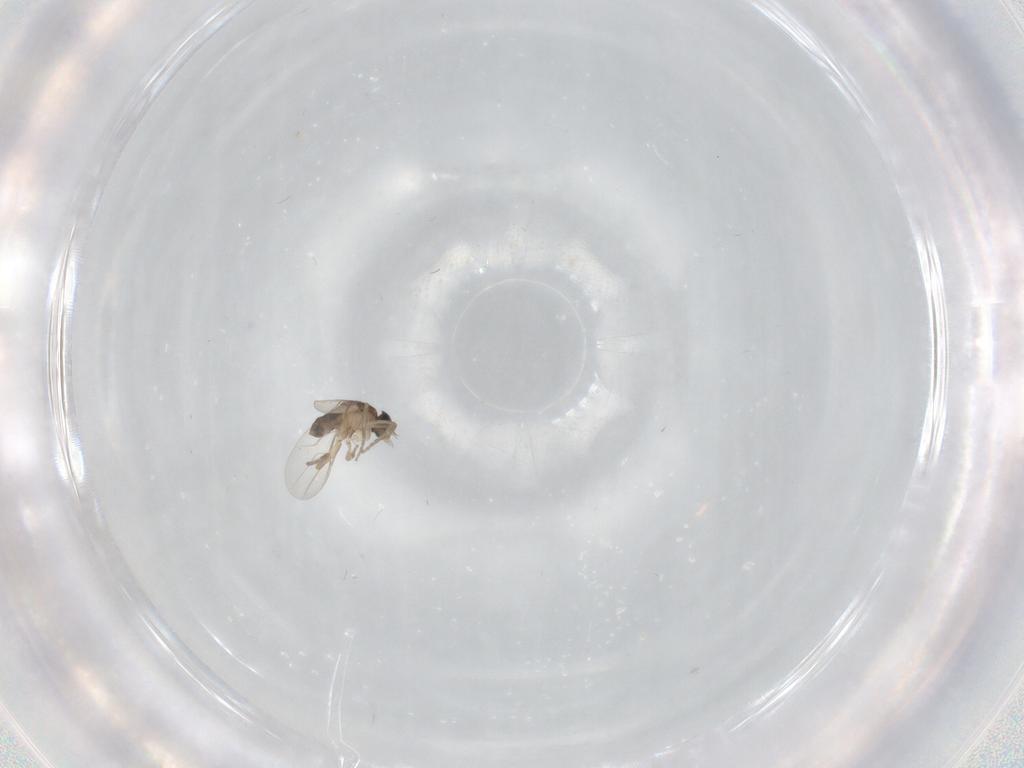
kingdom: Animalia
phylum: Arthropoda
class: Insecta
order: Diptera
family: Phoridae
